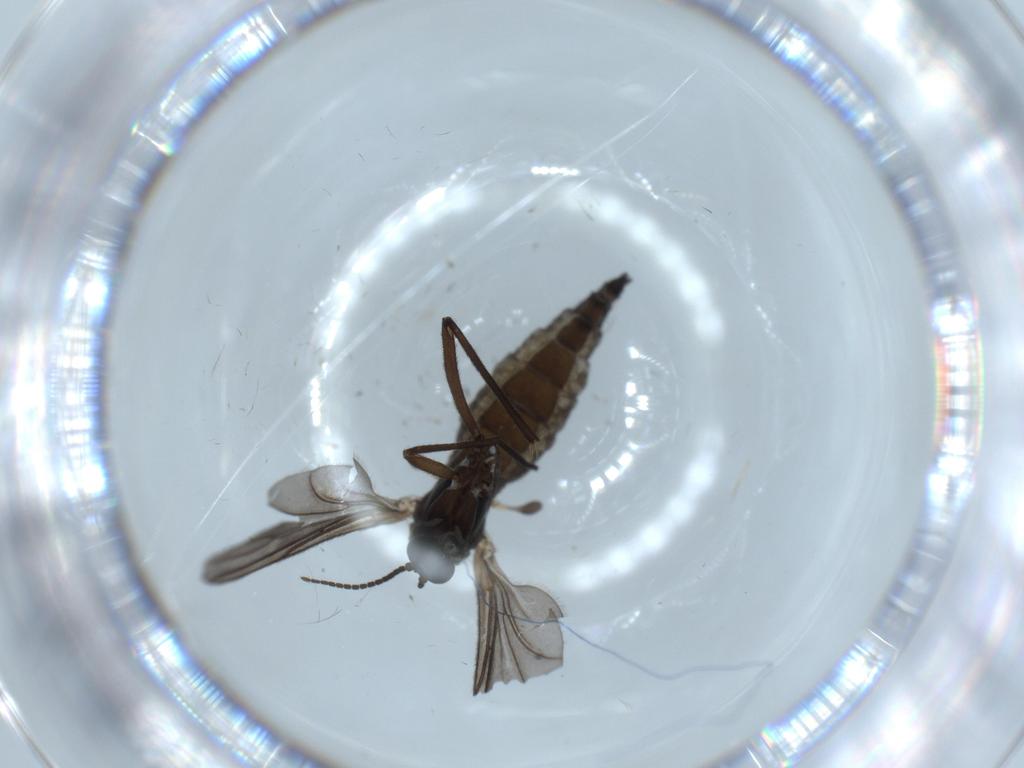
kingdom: Animalia
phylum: Arthropoda
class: Insecta
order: Diptera
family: Sciaridae
